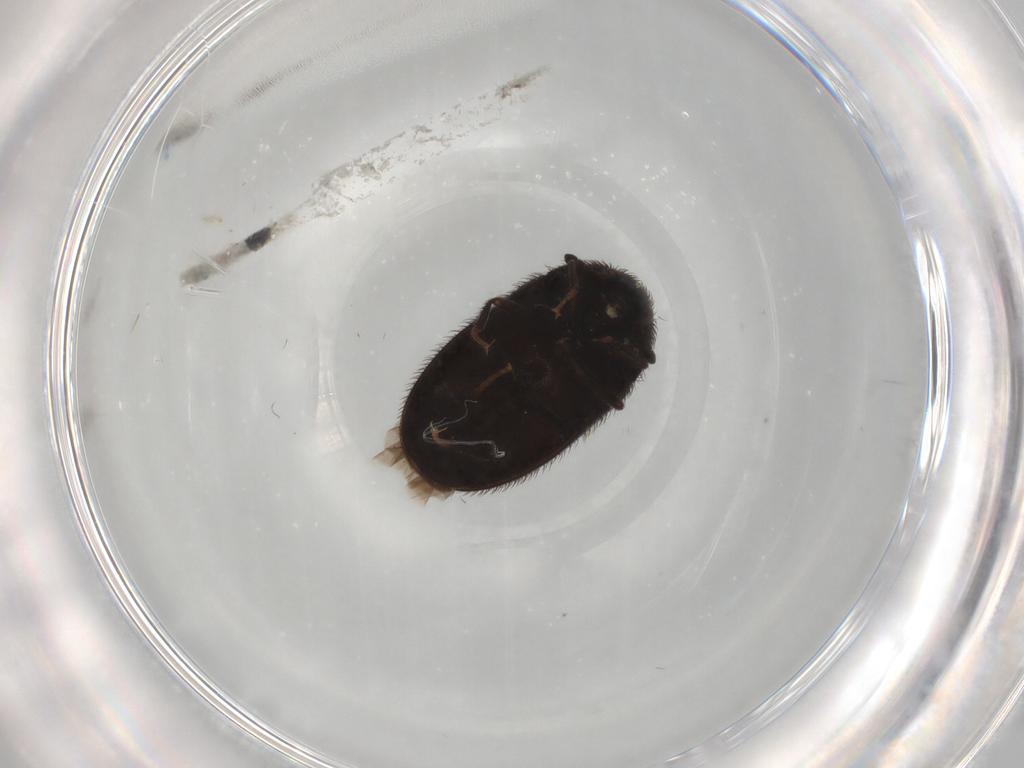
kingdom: Animalia
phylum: Arthropoda
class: Insecta
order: Coleoptera
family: Dermestidae
